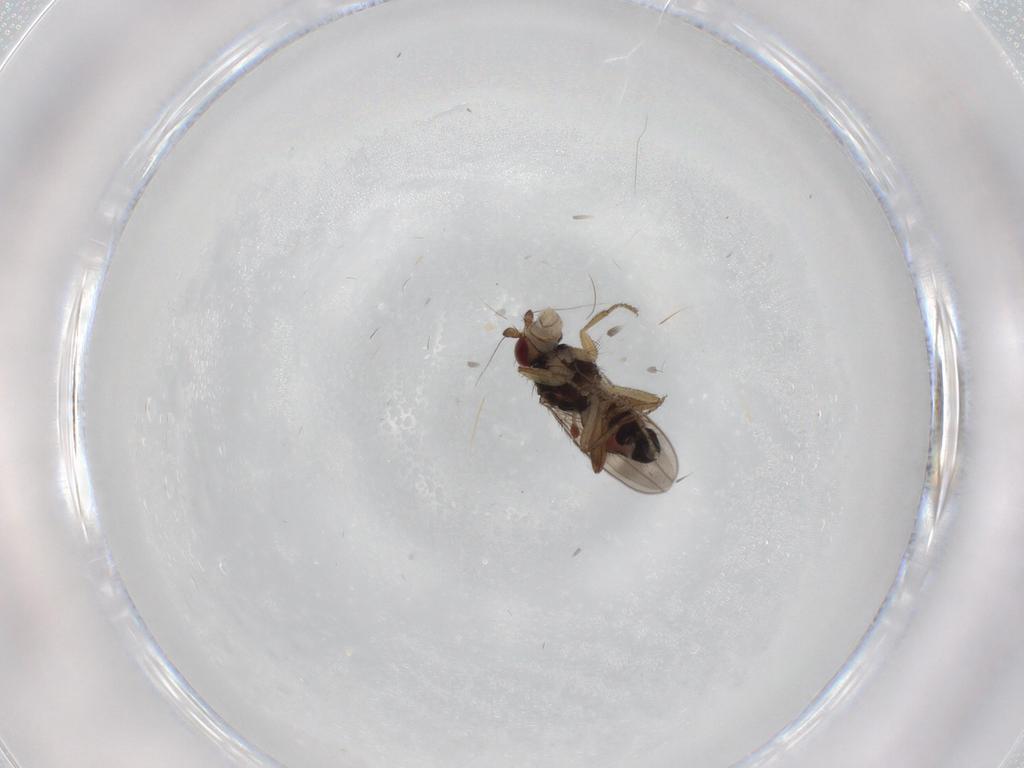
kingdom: Animalia
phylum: Arthropoda
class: Insecta
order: Diptera
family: Sphaeroceridae
